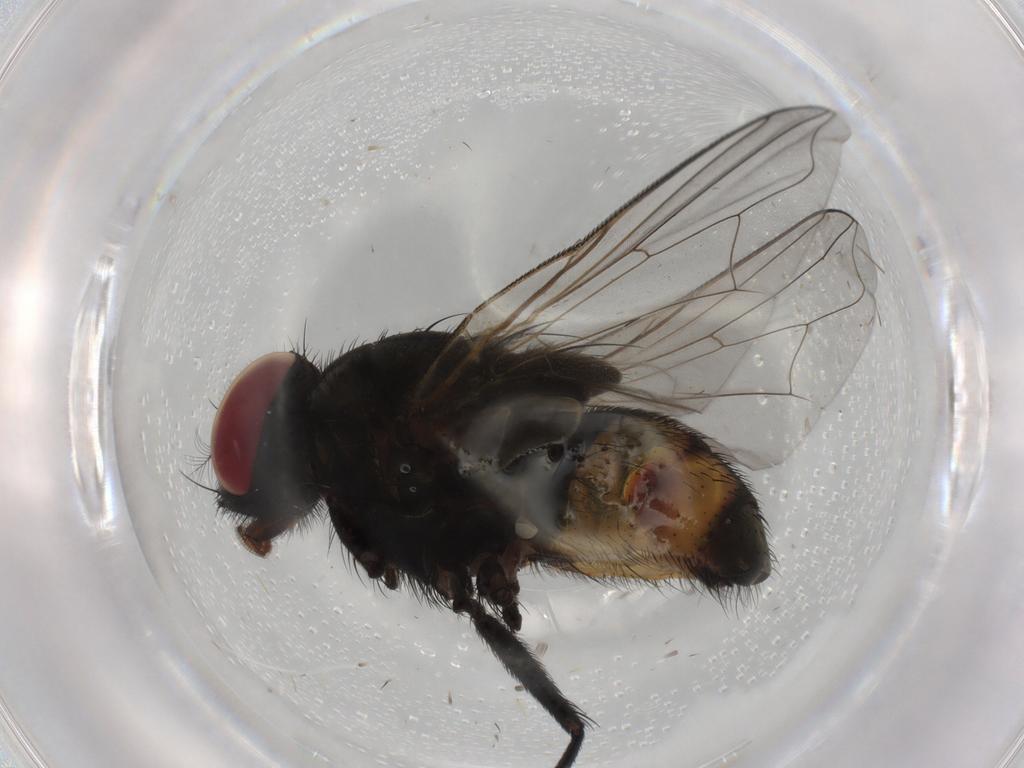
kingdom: Animalia
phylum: Arthropoda
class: Insecta
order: Diptera
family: Muscidae
